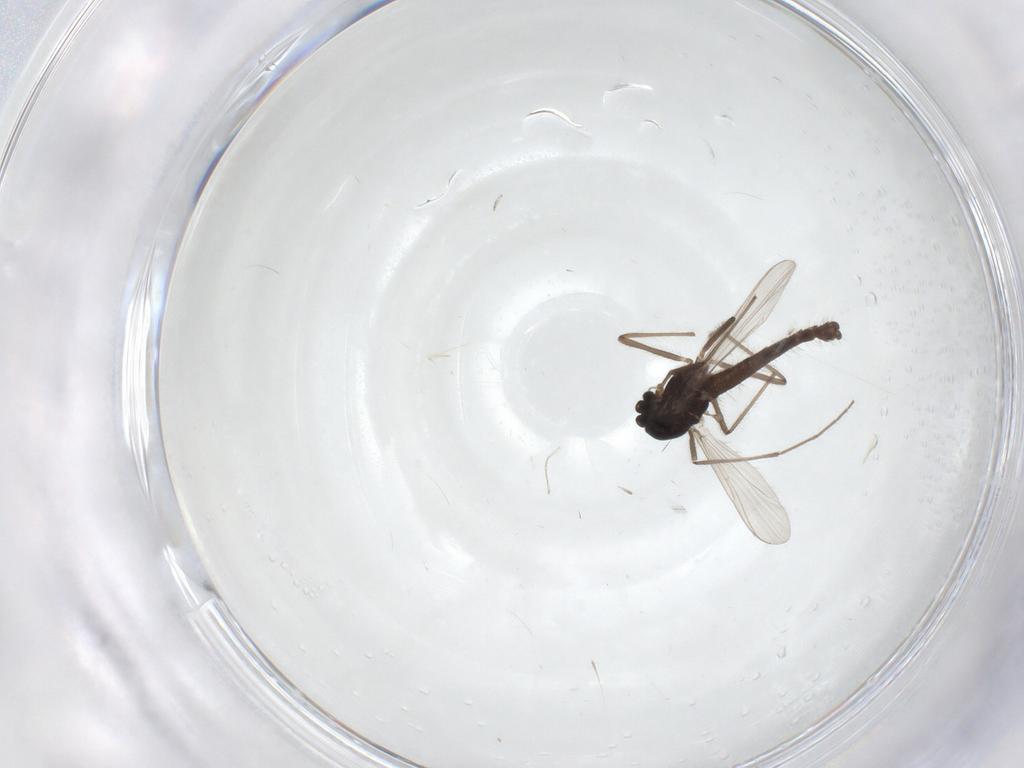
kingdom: Animalia
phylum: Arthropoda
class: Insecta
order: Diptera
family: Chironomidae
